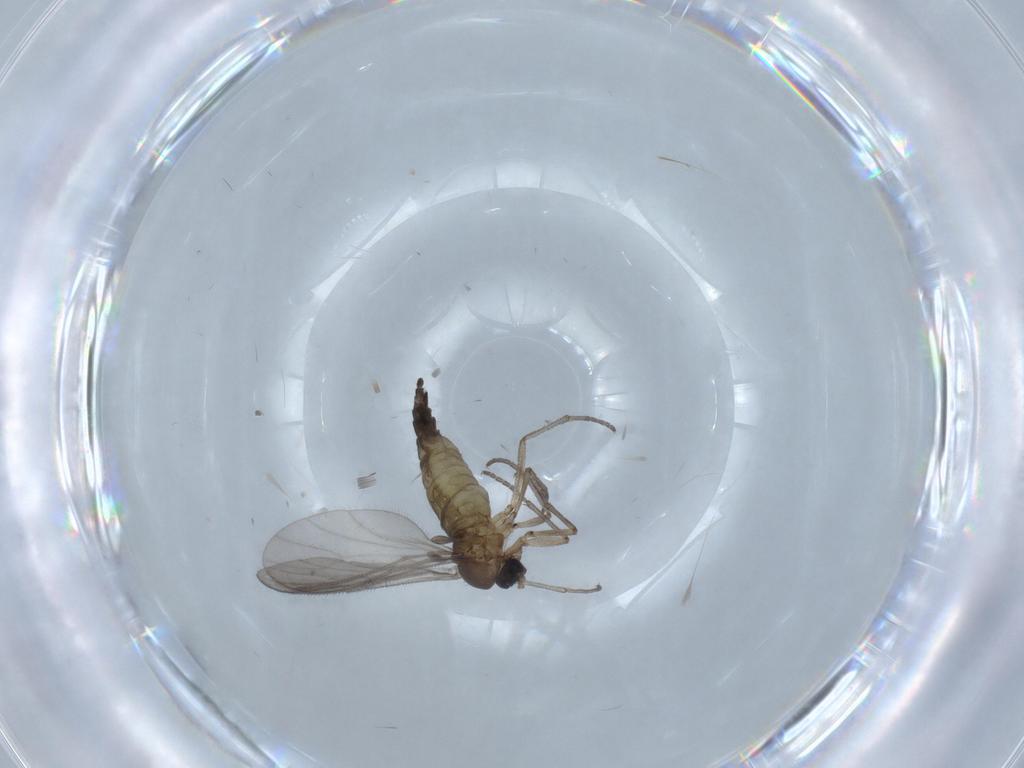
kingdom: Animalia
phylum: Arthropoda
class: Insecta
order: Diptera
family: Sciaridae
